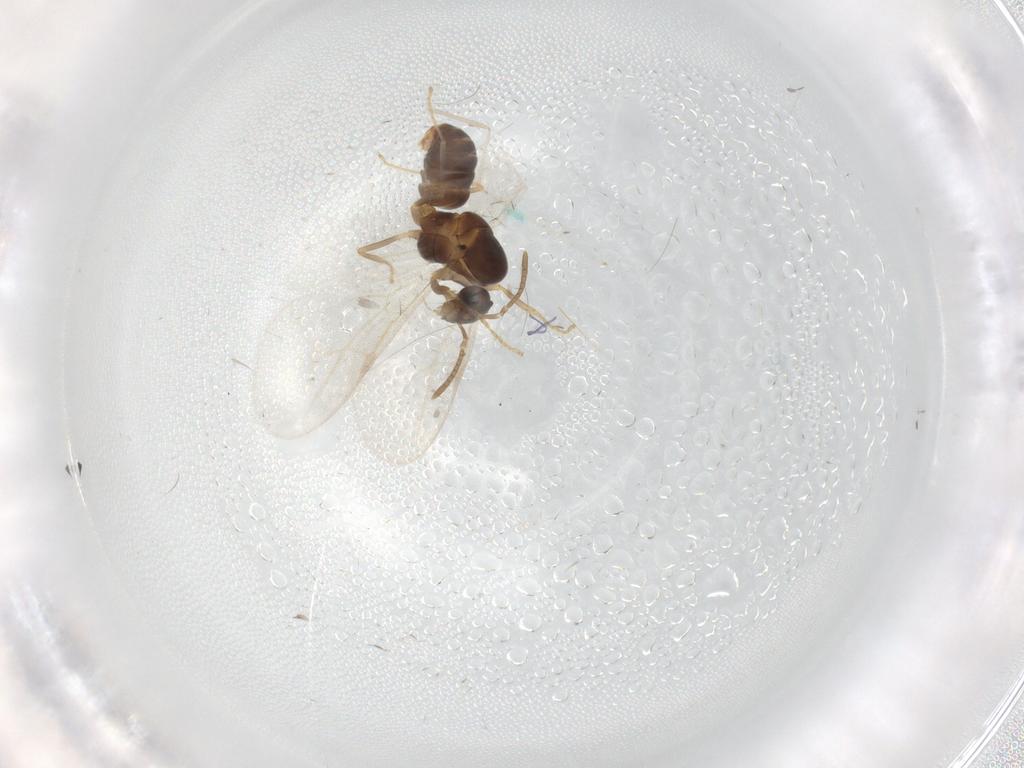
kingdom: Animalia
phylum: Arthropoda
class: Insecta
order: Hymenoptera
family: Formicidae
